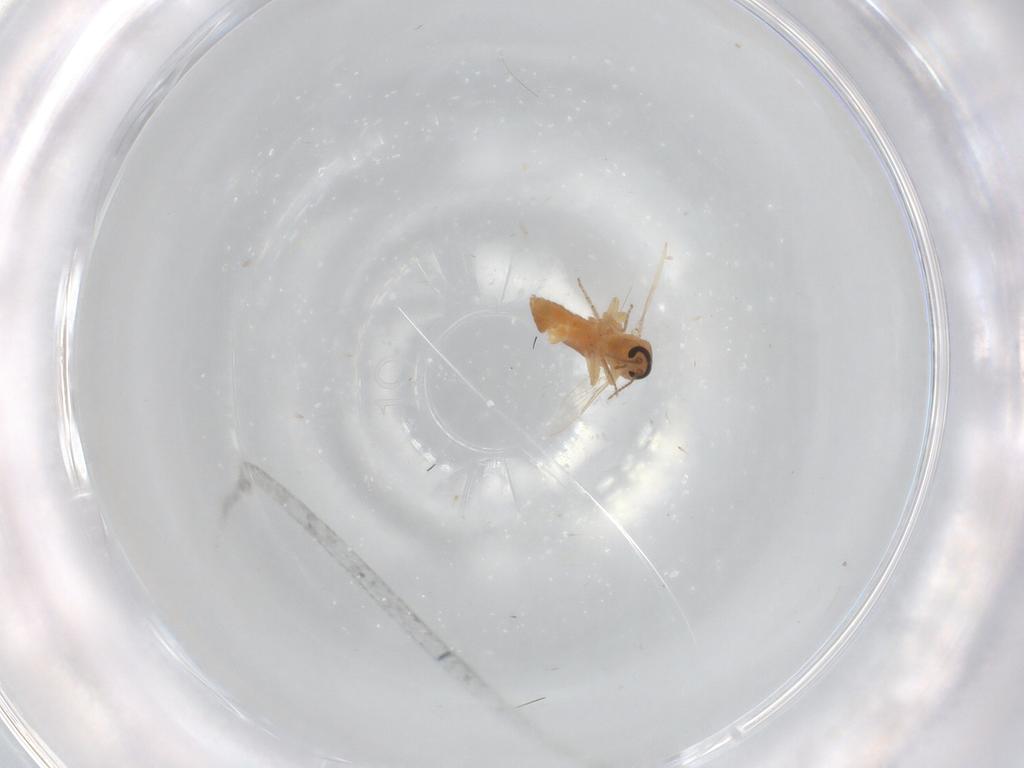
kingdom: Animalia
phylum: Arthropoda
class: Insecta
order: Diptera
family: Chironomidae
